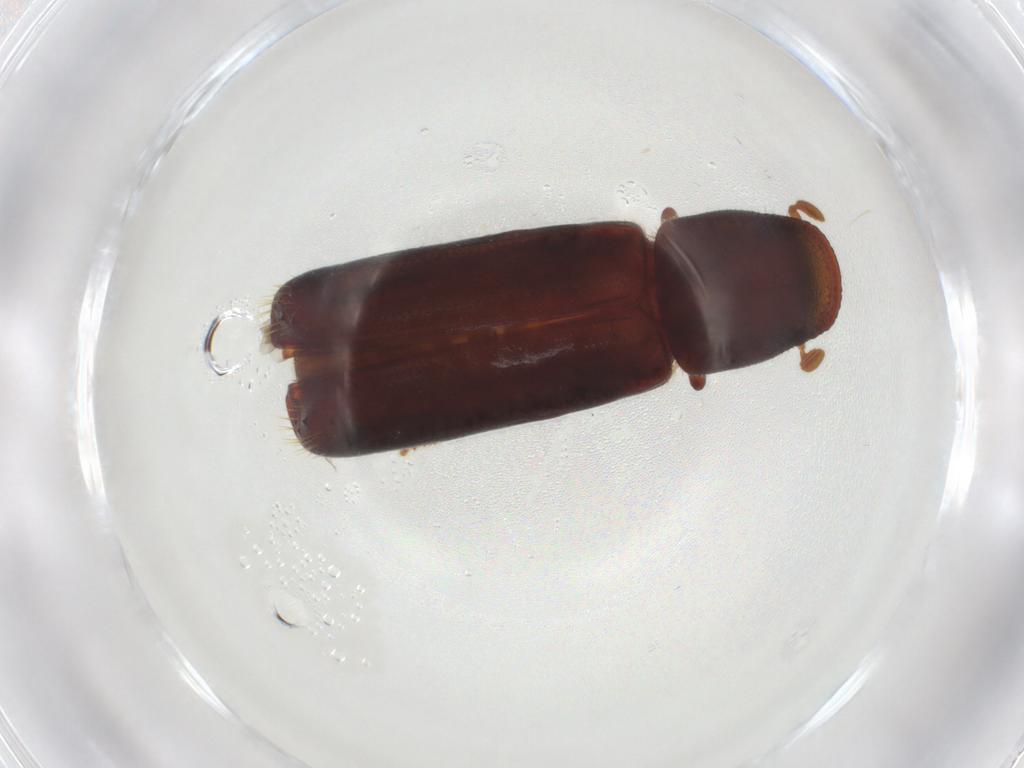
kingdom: Animalia
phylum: Arthropoda
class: Insecta
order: Coleoptera
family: Curculionidae
